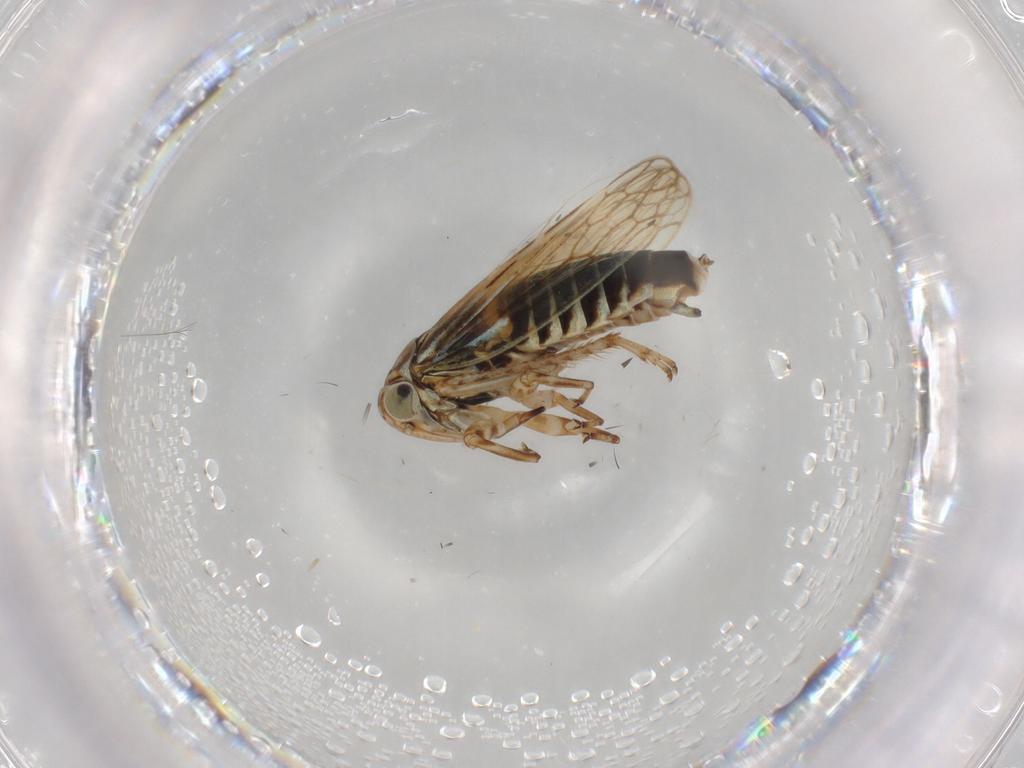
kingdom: Animalia
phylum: Arthropoda
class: Insecta
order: Hemiptera
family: Cicadellidae
